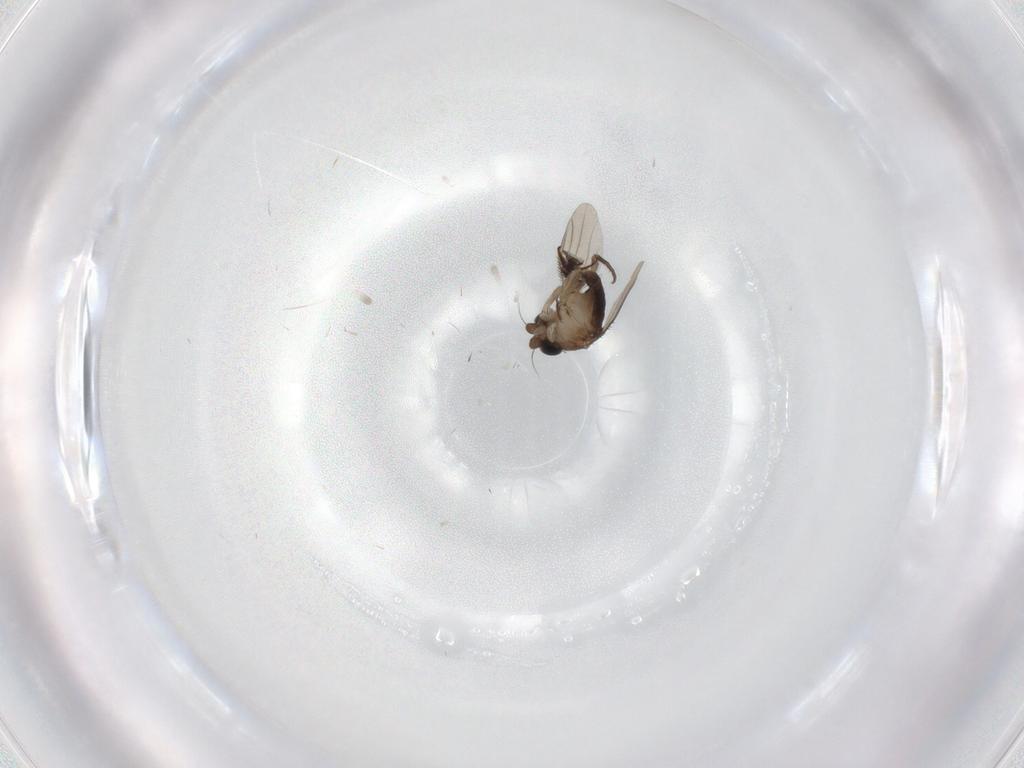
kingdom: Animalia
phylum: Arthropoda
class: Insecta
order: Diptera
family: Phoridae
